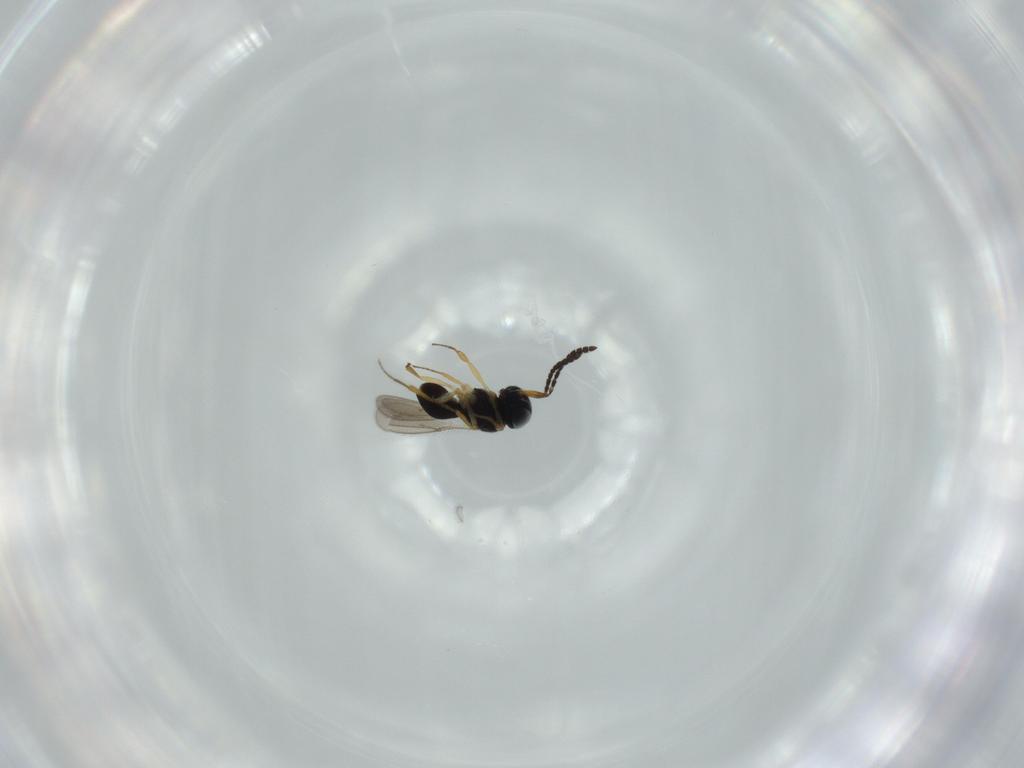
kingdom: Animalia
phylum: Arthropoda
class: Insecta
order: Hymenoptera
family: Scelionidae
